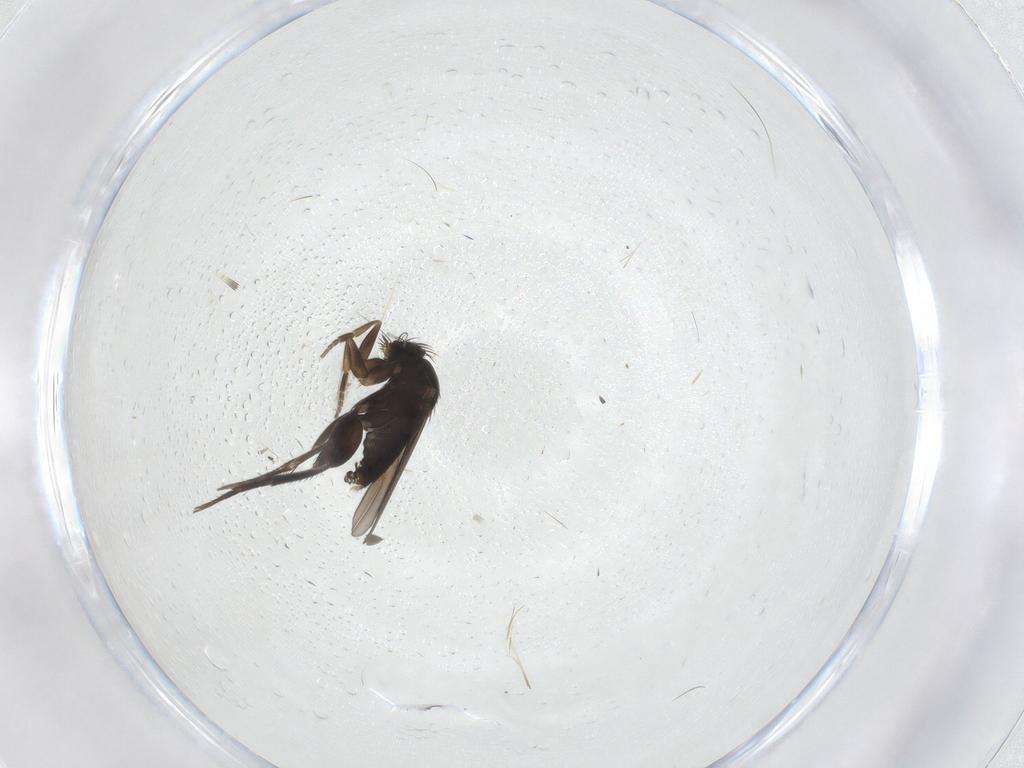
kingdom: Animalia
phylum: Arthropoda
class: Insecta
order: Diptera
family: Phoridae
